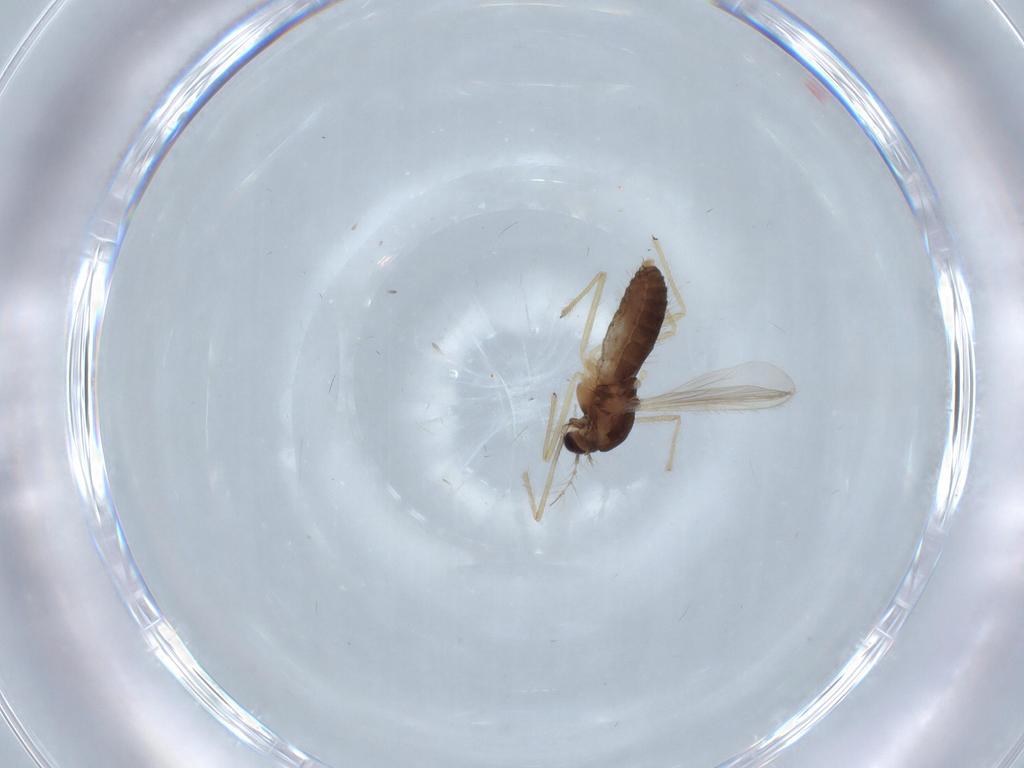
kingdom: Animalia
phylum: Arthropoda
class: Insecta
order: Diptera
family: Chironomidae
